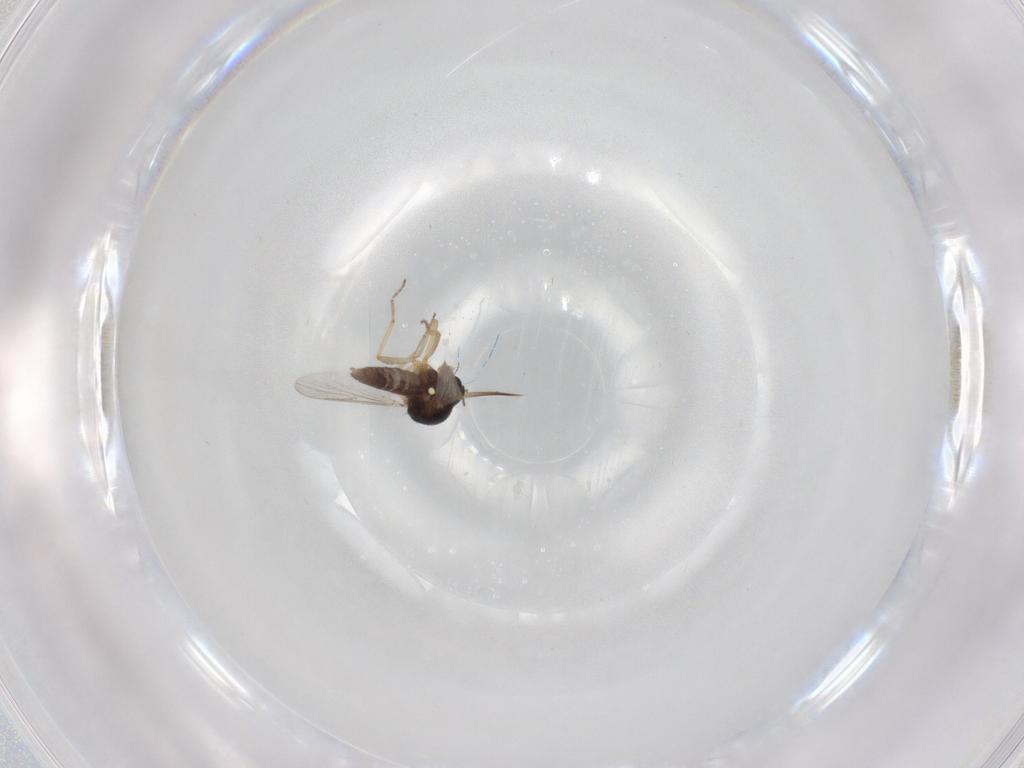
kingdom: Animalia
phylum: Arthropoda
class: Insecta
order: Diptera
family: Ceratopogonidae
